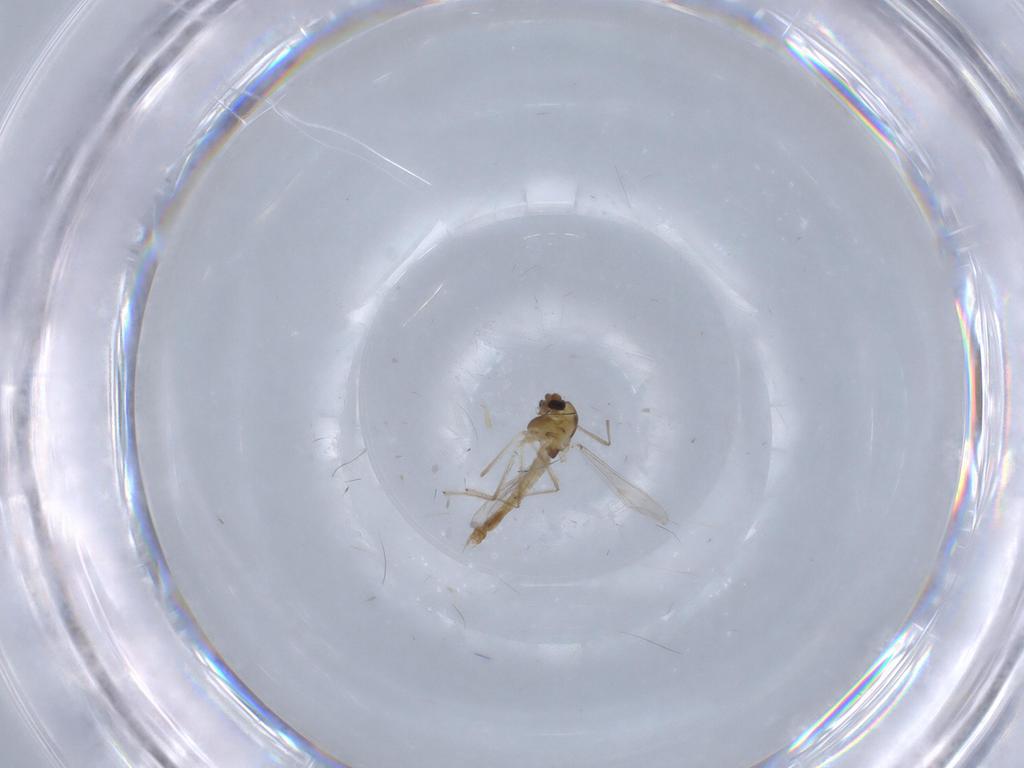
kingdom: Animalia
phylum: Arthropoda
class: Insecta
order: Diptera
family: Chironomidae
